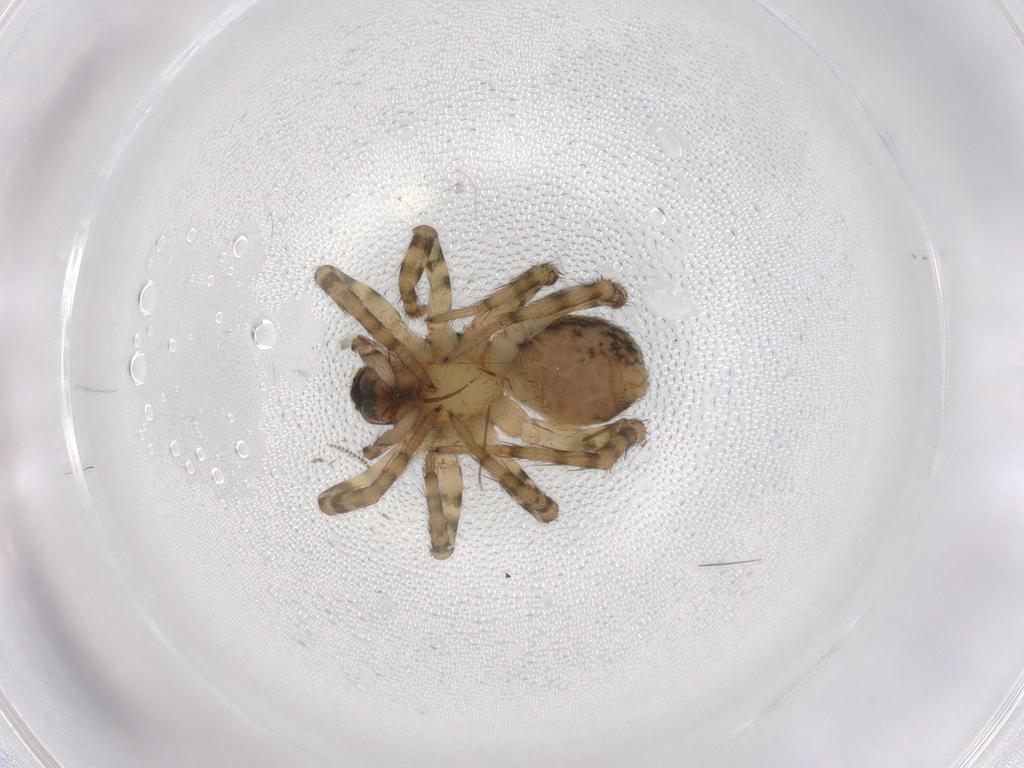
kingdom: Animalia
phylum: Arthropoda
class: Arachnida
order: Araneae
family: Lycosidae
